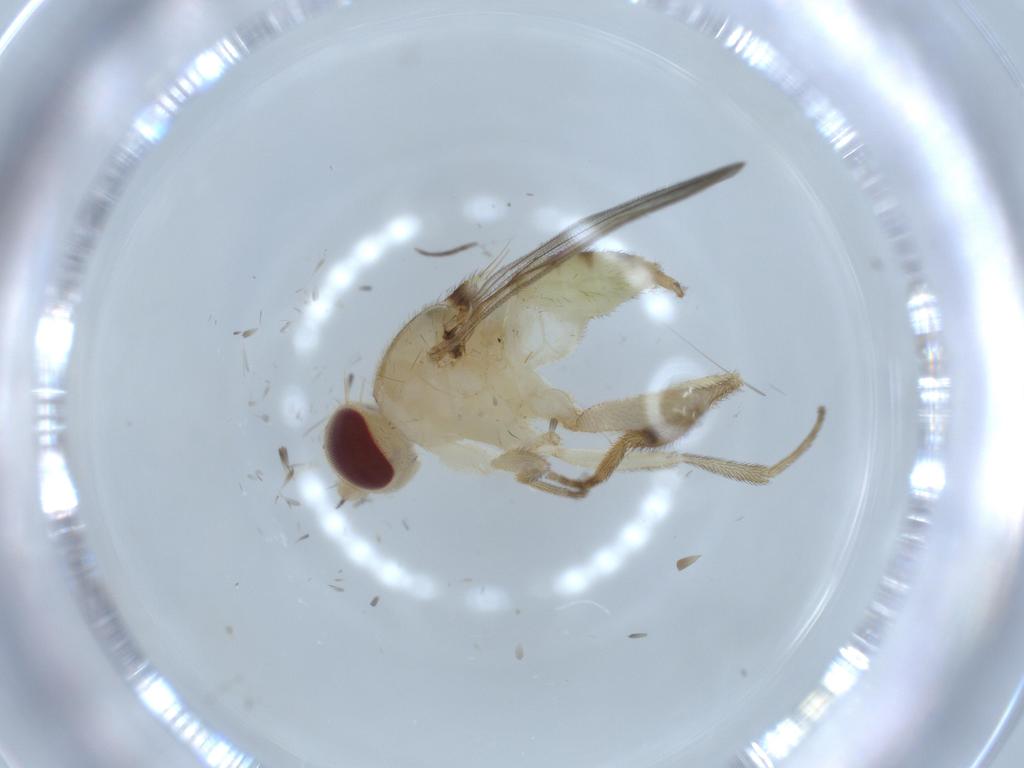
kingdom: Animalia
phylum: Arthropoda
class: Insecta
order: Diptera
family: Chloropidae
